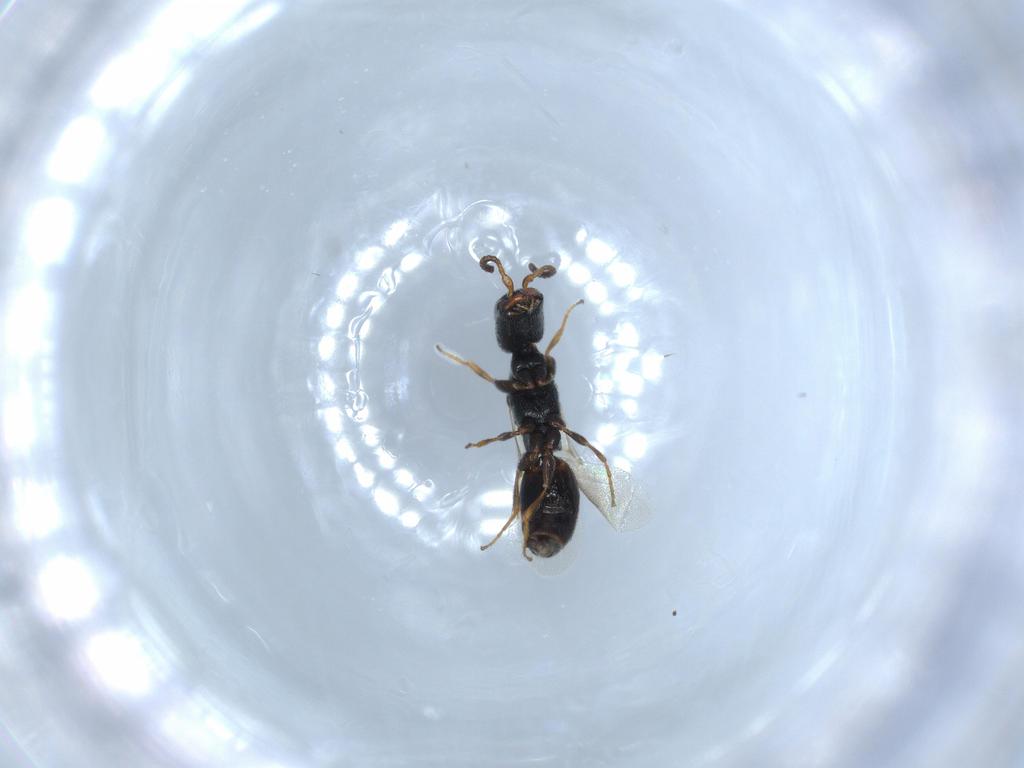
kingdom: Animalia
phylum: Arthropoda
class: Insecta
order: Hymenoptera
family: Bethylidae
